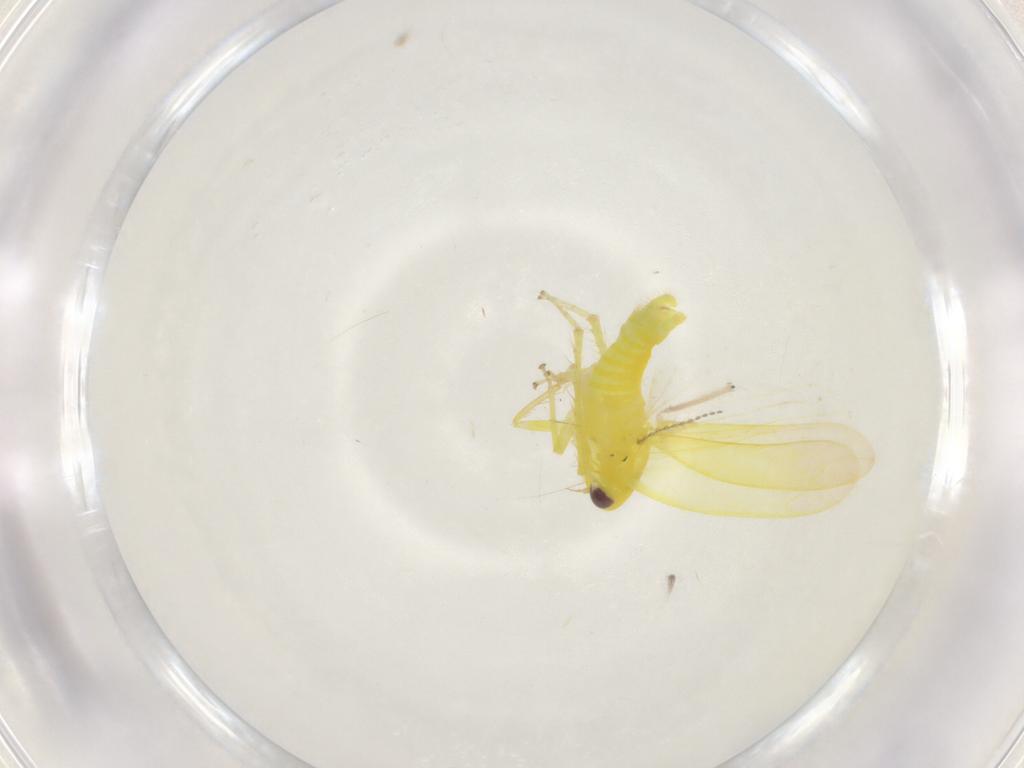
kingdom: Animalia
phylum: Arthropoda
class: Insecta
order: Hemiptera
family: Cicadellidae
